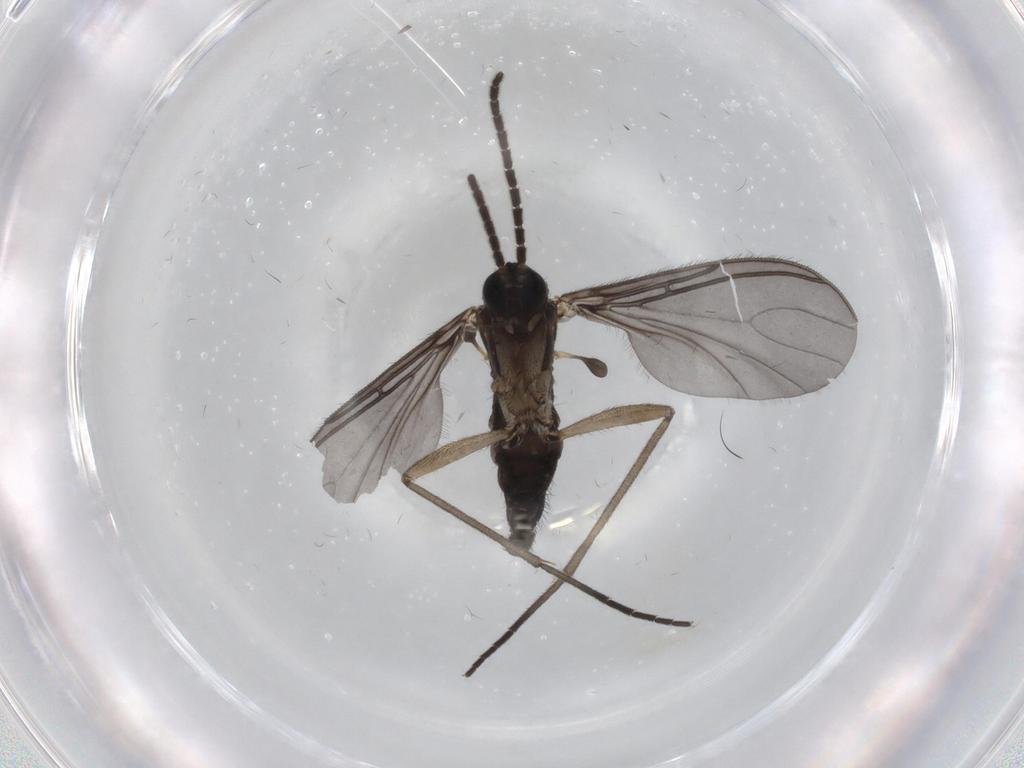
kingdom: Animalia
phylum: Arthropoda
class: Insecta
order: Diptera
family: Sciaridae
